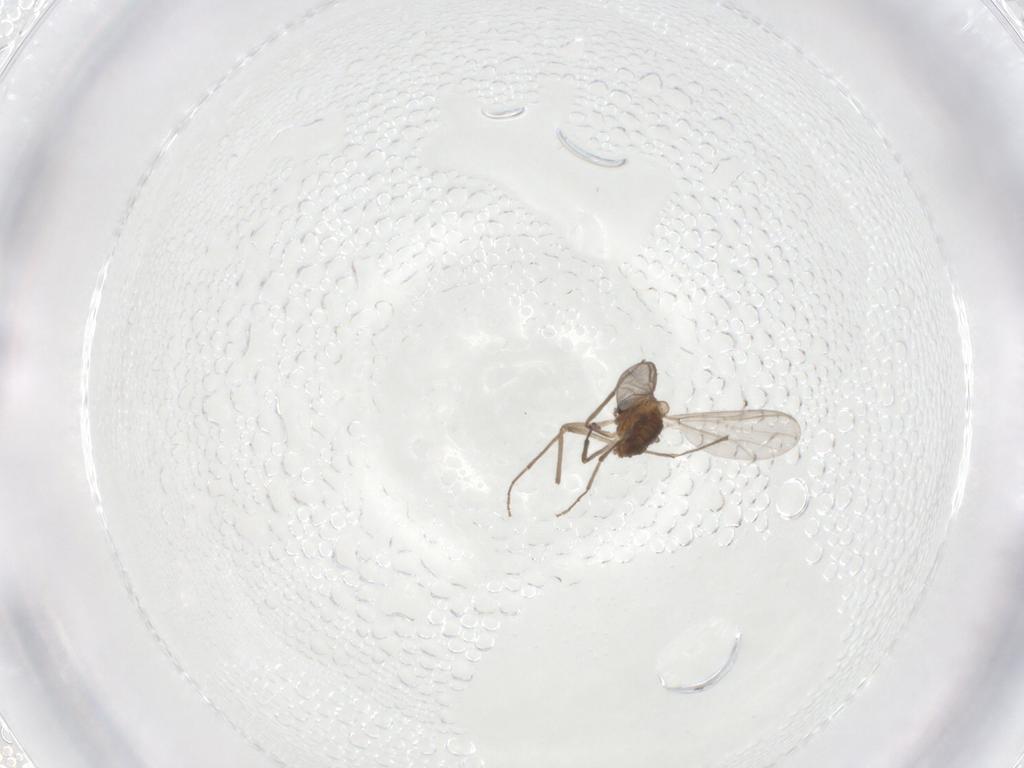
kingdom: Animalia
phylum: Arthropoda
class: Insecta
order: Diptera
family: Chironomidae
